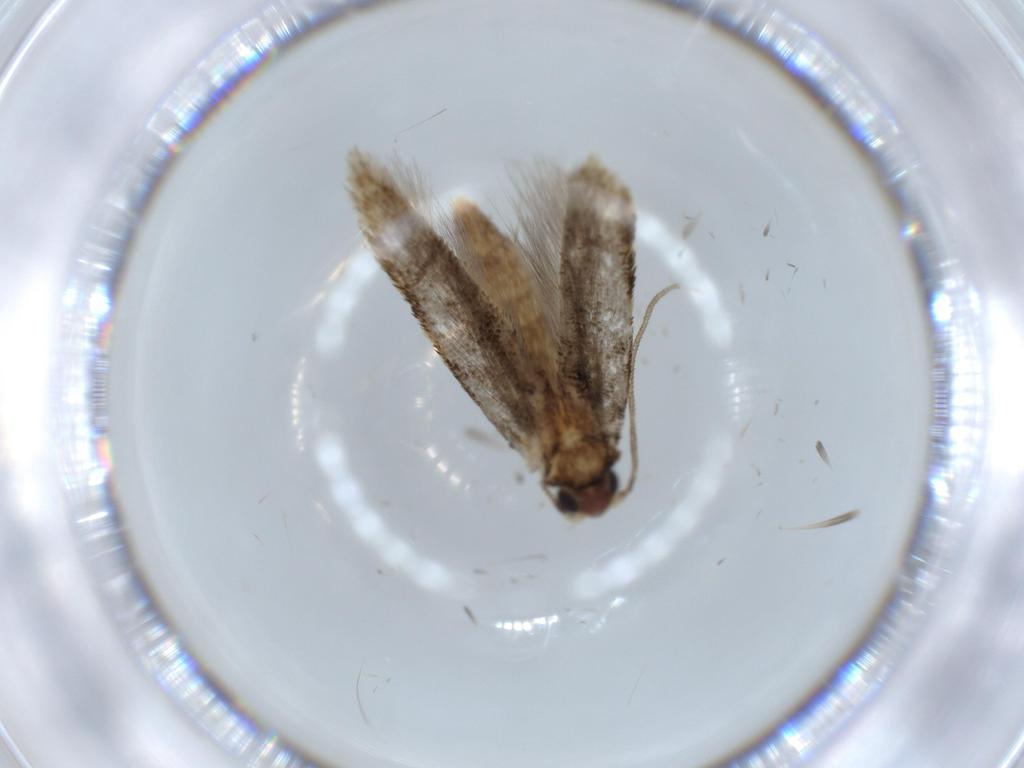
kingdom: Animalia
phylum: Arthropoda
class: Insecta
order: Lepidoptera
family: Tineidae
